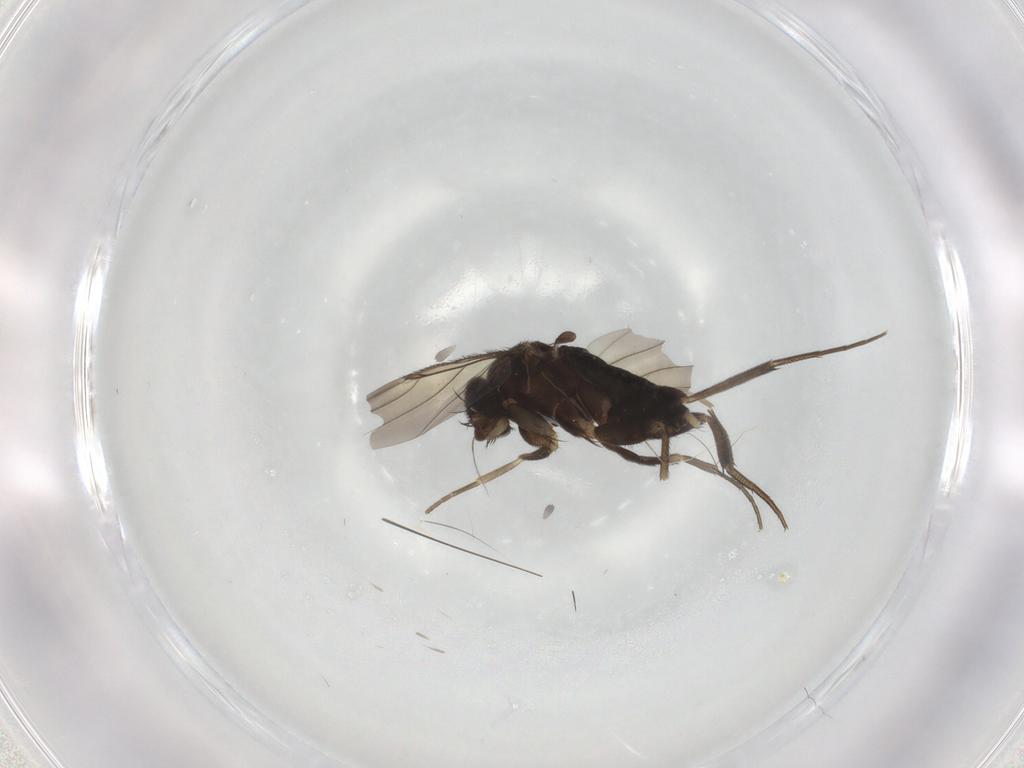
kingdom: Animalia
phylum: Arthropoda
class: Insecta
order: Diptera
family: Phoridae
